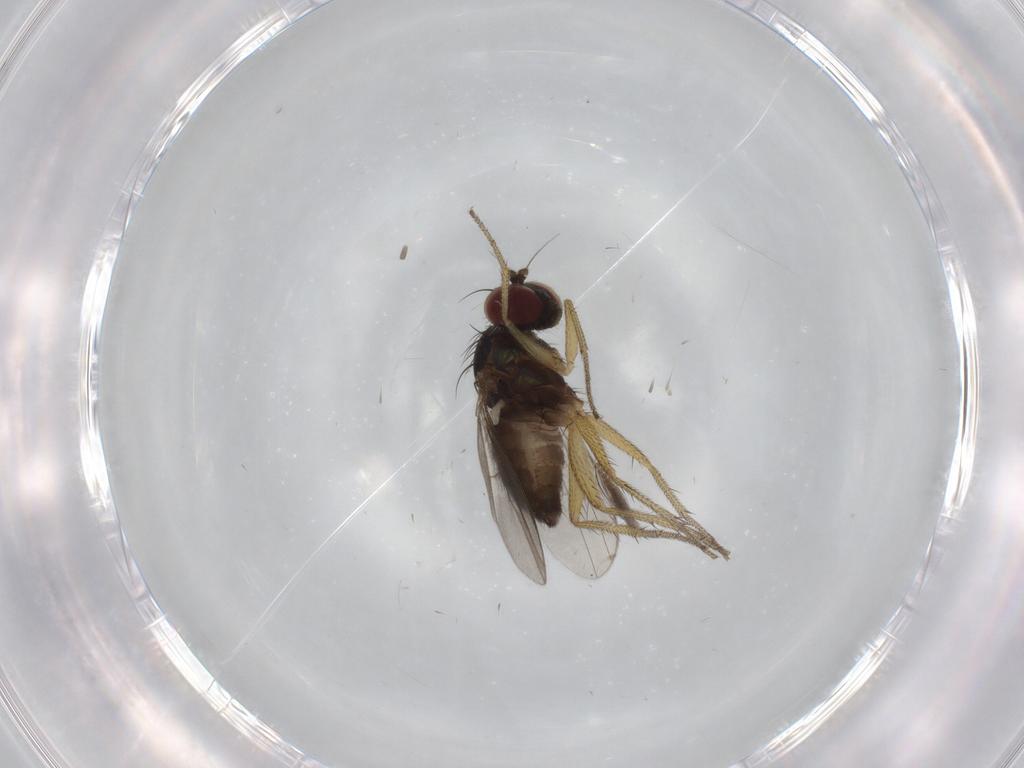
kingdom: Animalia
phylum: Arthropoda
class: Insecta
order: Diptera
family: Ceratopogonidae
